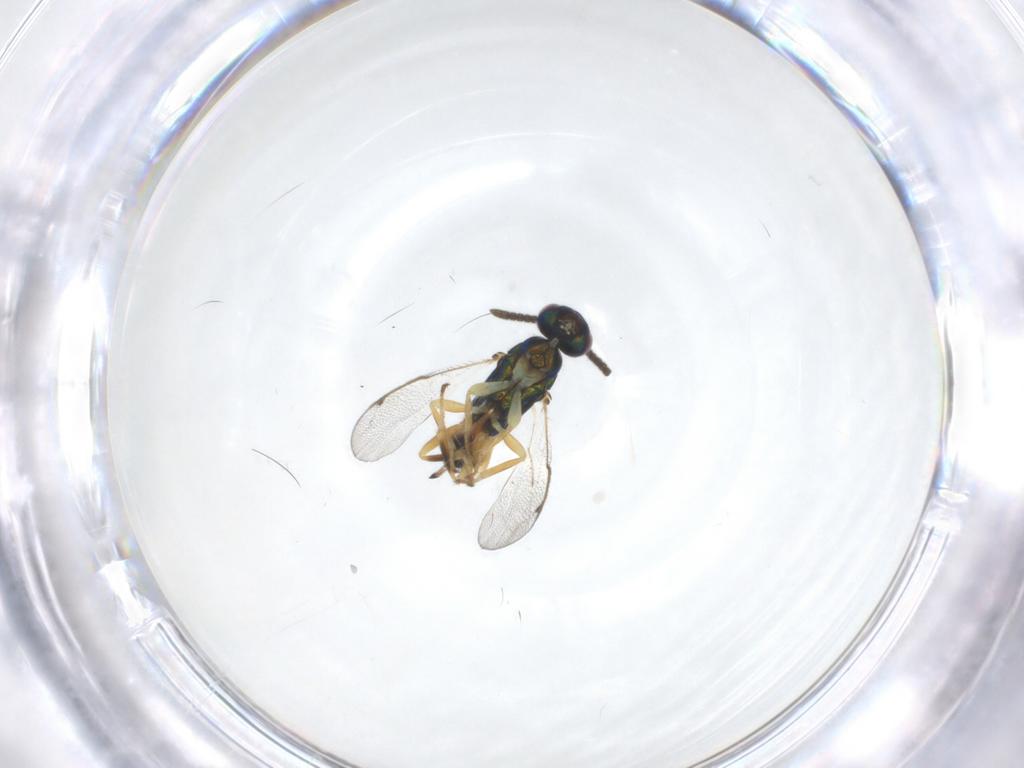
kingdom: Animalia
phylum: Arthropoda
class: Insecta
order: Hymenoptera
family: Torymidae
